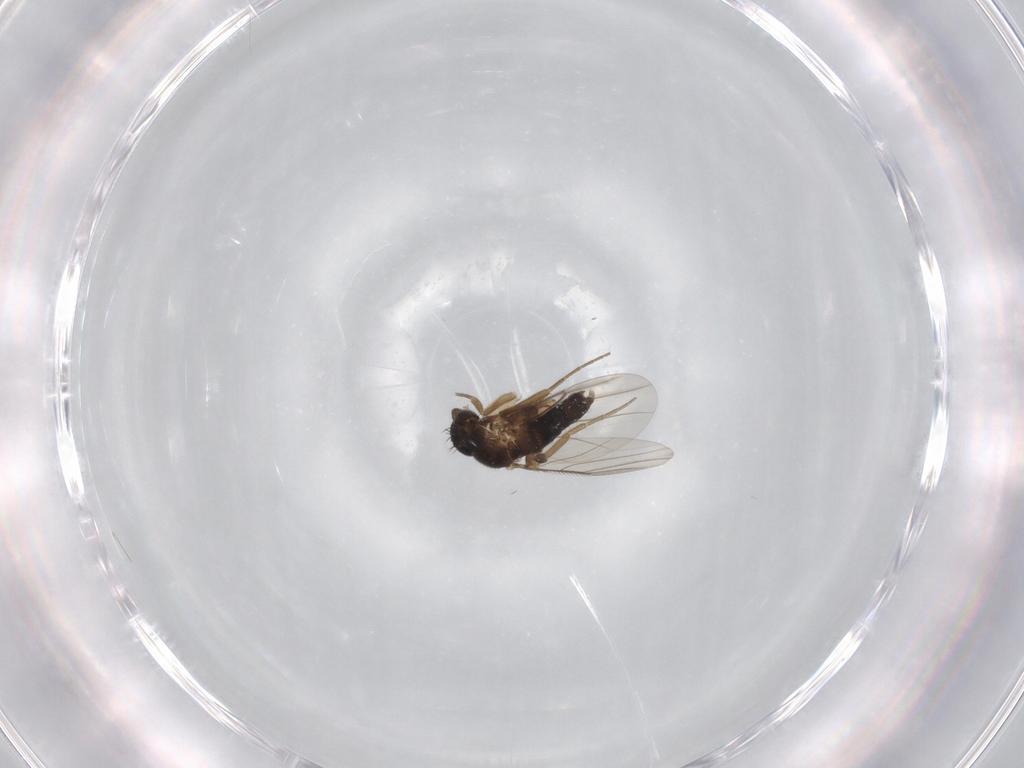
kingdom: Animalia
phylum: Arthropoda
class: Insecta
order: Diptera
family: Phoridae
